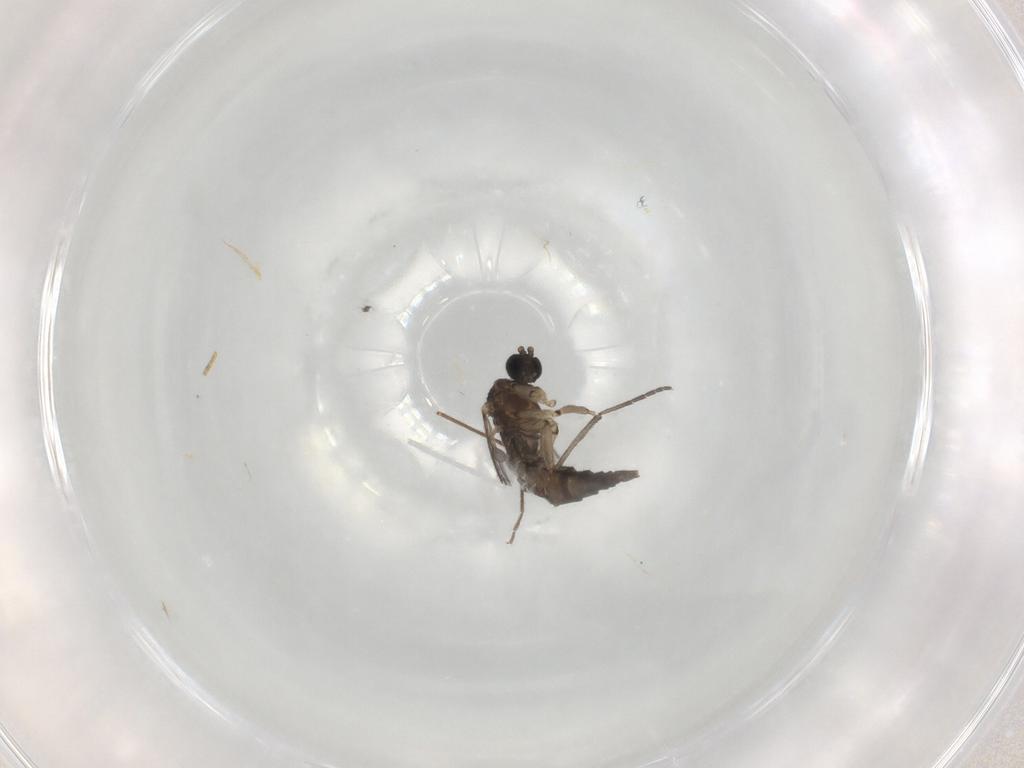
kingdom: Animalia
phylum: Arthropoda
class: Insecta
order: Diptera
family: Sciaridae
